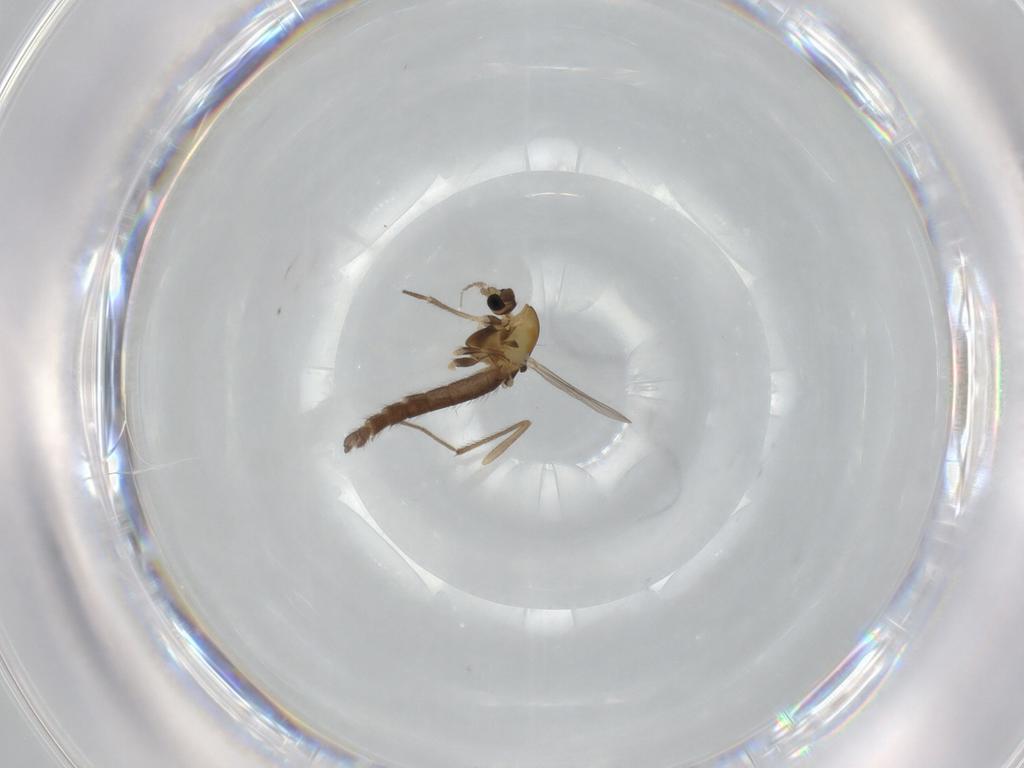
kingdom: Animalia
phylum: Arthropoda
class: Insecta
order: Diptera
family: Chironomidae
